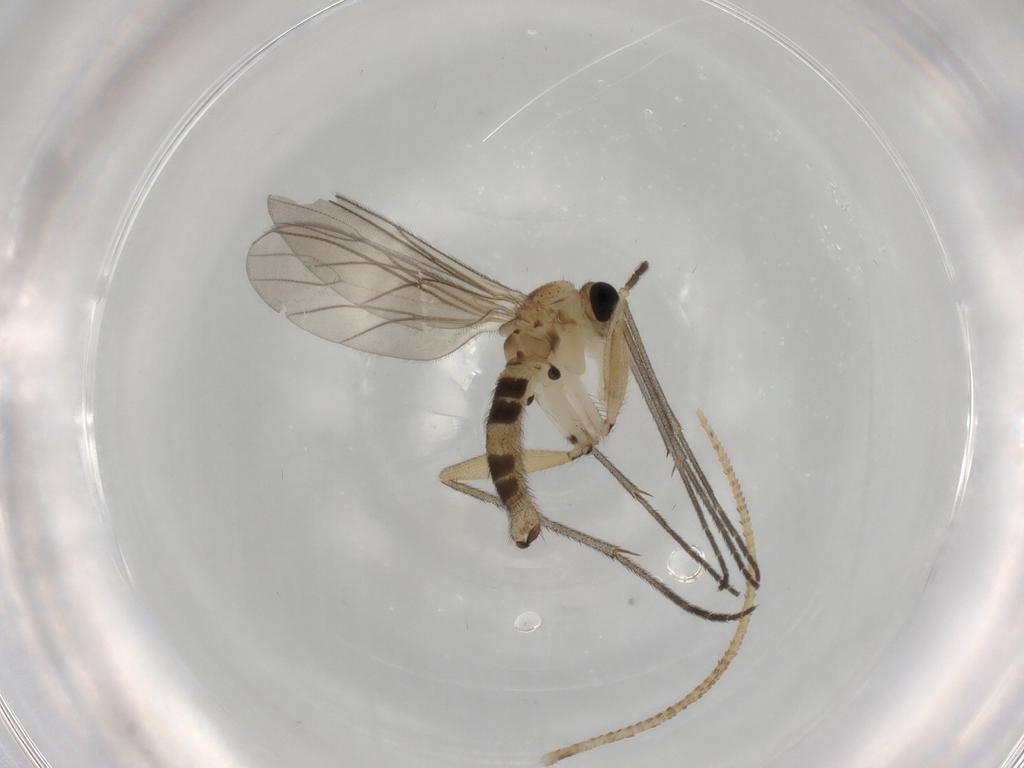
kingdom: Animalia
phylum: Arthropoda
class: Insecta
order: Diptera
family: Sciaridae
